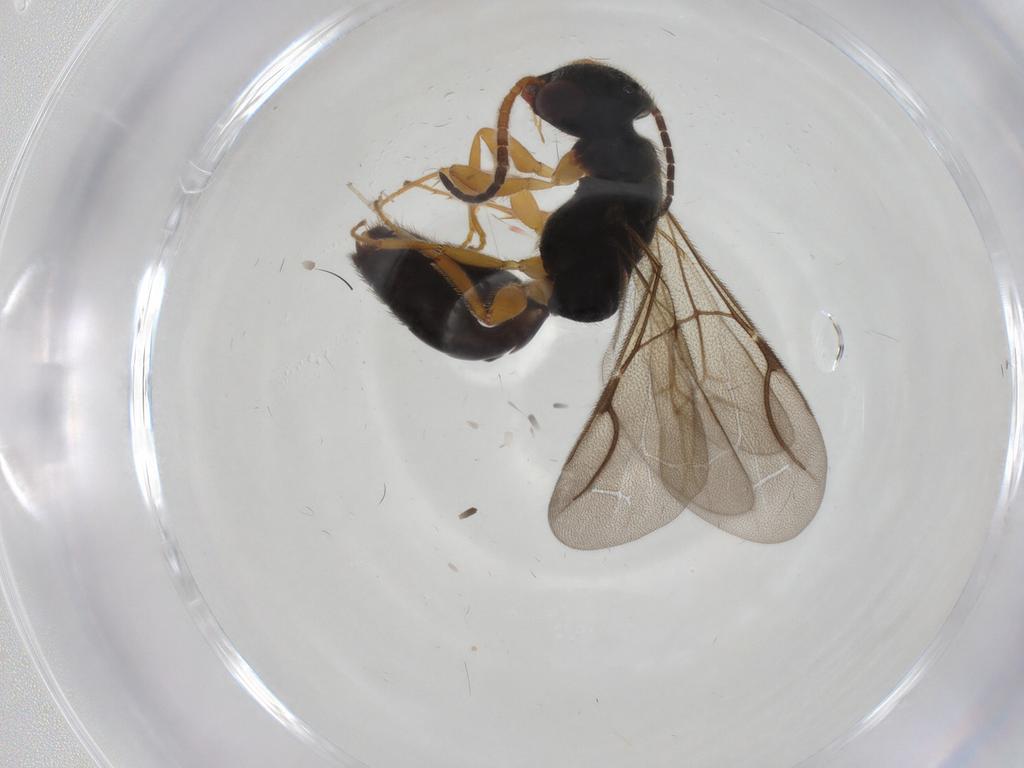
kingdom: Animalia
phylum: Arthropoda
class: Insecta
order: Hymenoptera
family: Bethylidae
